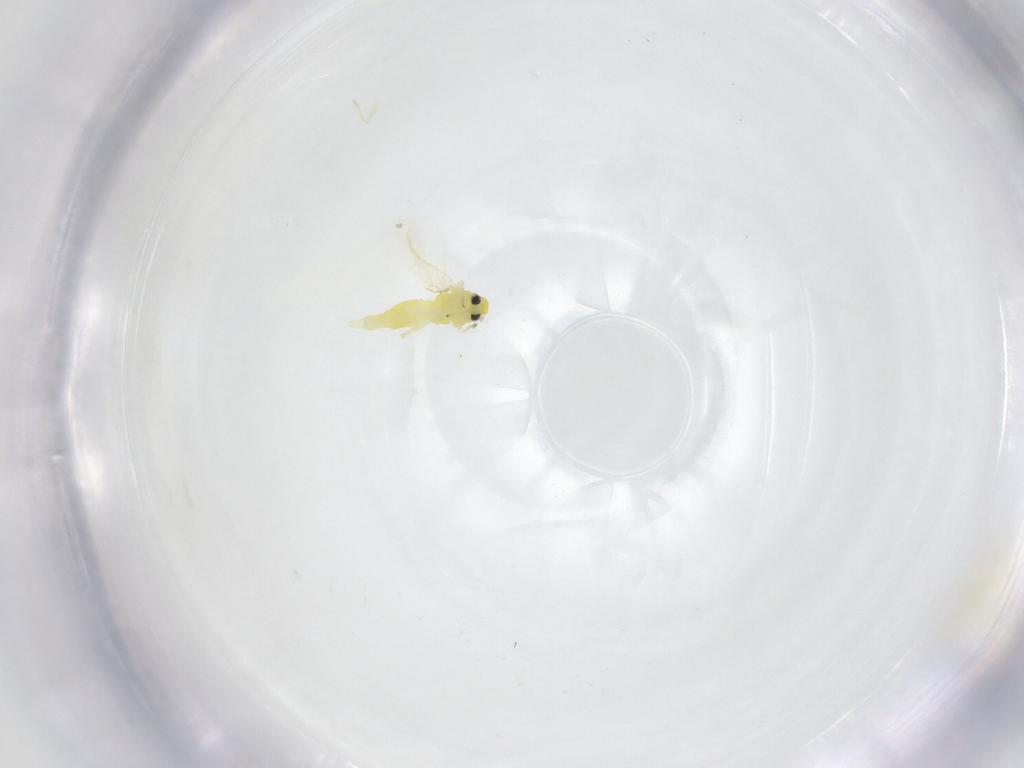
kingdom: Animalia
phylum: Arthropoda
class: Insecta
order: Hemiptera
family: Aleyrodidae
